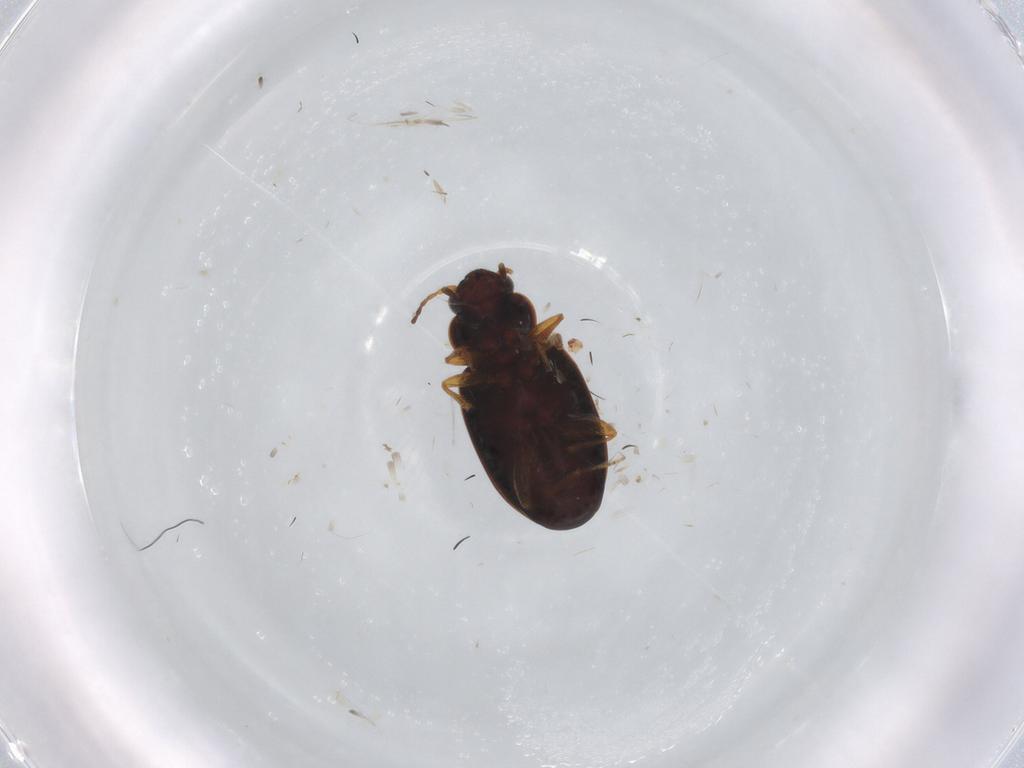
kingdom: Animalia
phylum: Arthropoda
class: Insecta
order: Coleoptera
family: Carabidae
